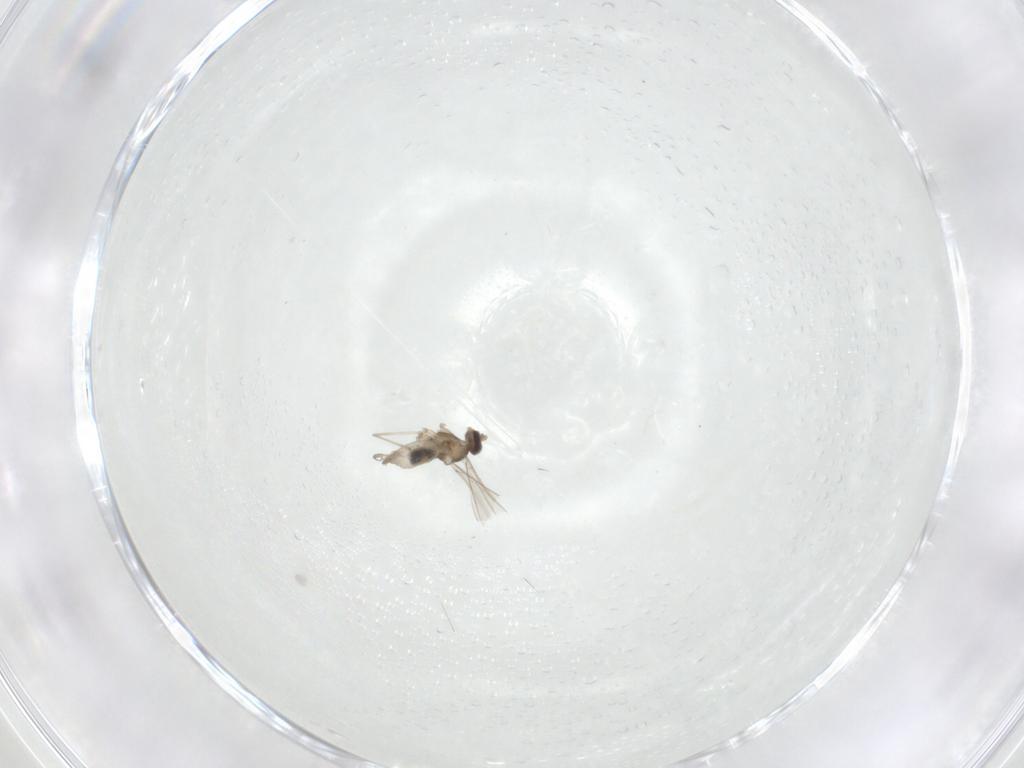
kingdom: Animalia
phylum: Arthropoda
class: Insecta
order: Diptera
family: Cecidomyiidae
